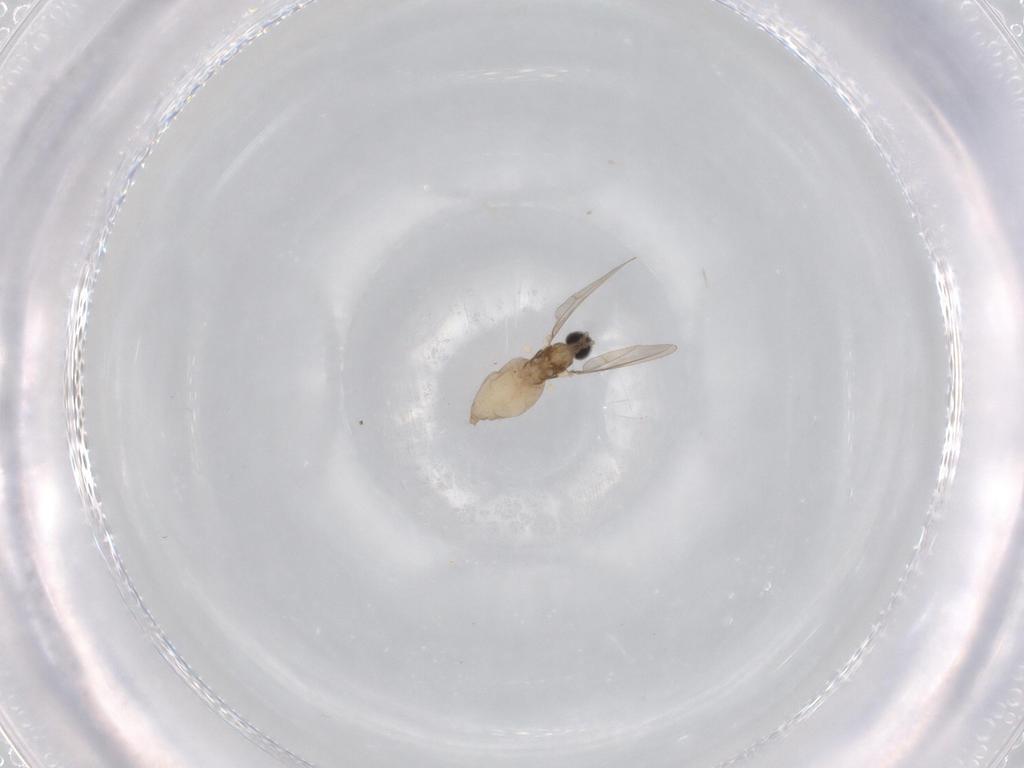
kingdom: Animalia
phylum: Arthropoda
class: Insecta
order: Diptera
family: Cecidomyiidae
